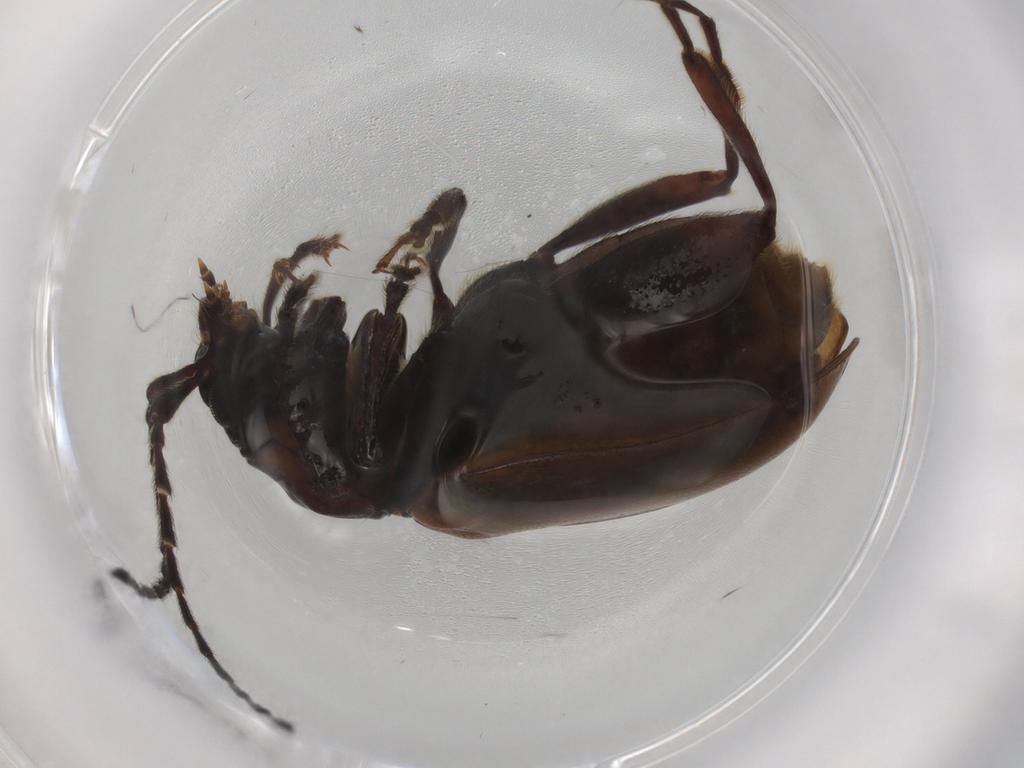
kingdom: Animalia
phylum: Arthropoda
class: Insecta
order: Coleoptera
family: Chrysomelidae
